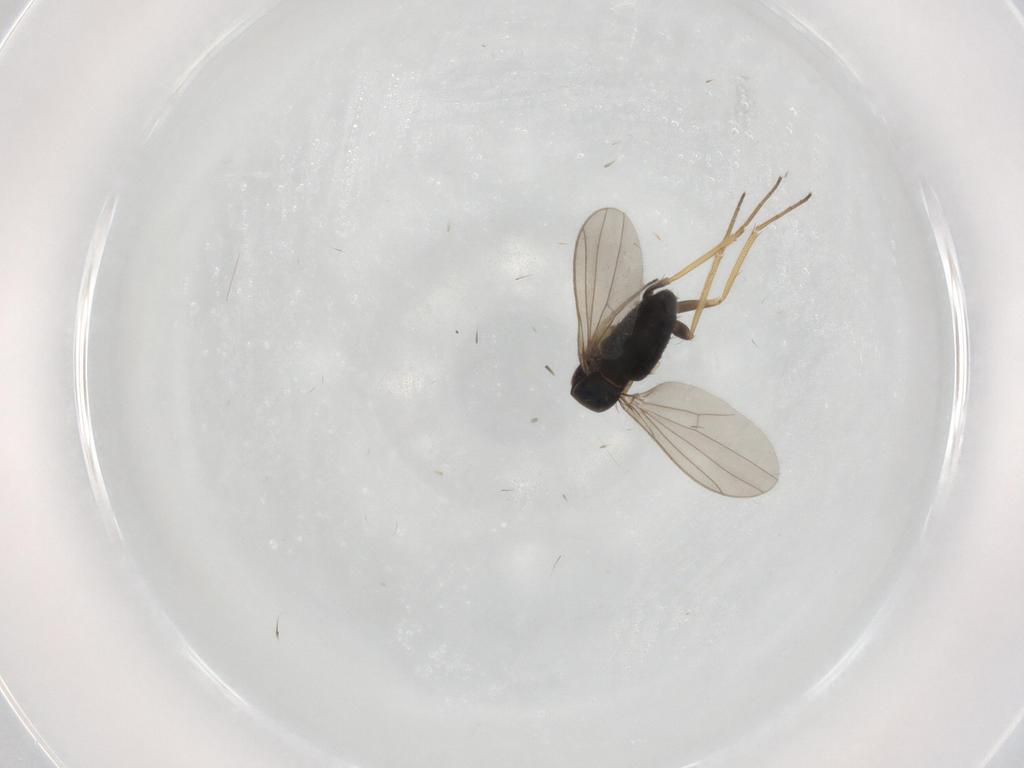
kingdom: Animalia
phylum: Arthropoda
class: Insecta
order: Diptera
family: Dolichopodidae
